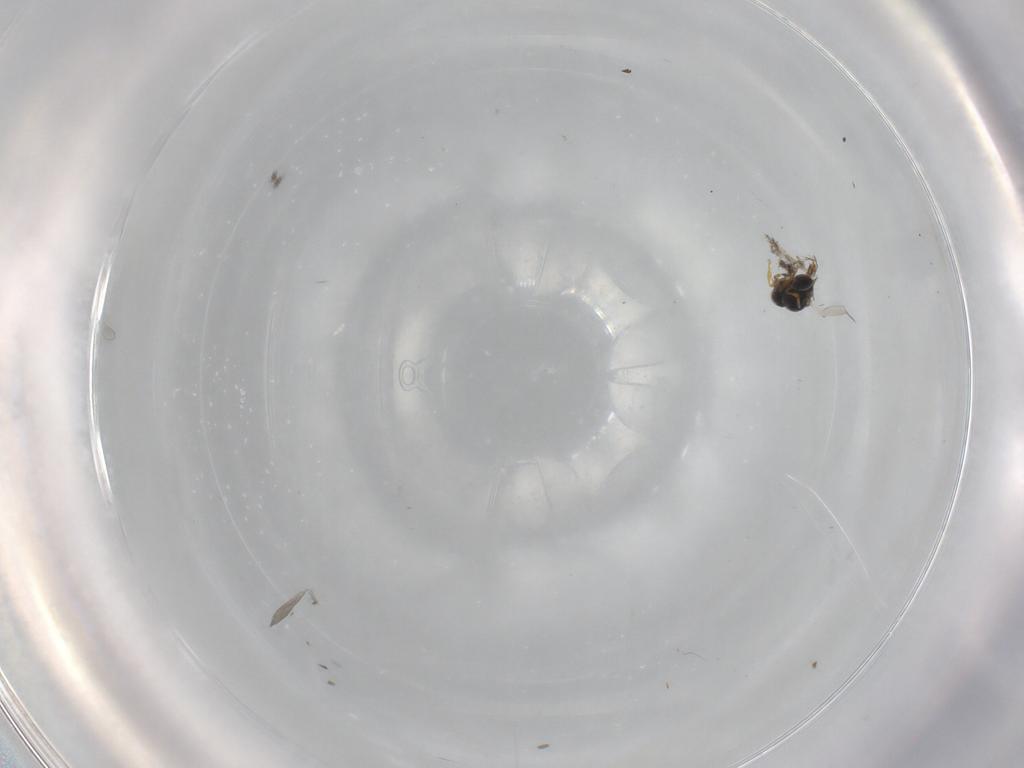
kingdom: Animalia
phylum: Arthropoda
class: Insecta
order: Hymenoptera
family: Platygastridae
